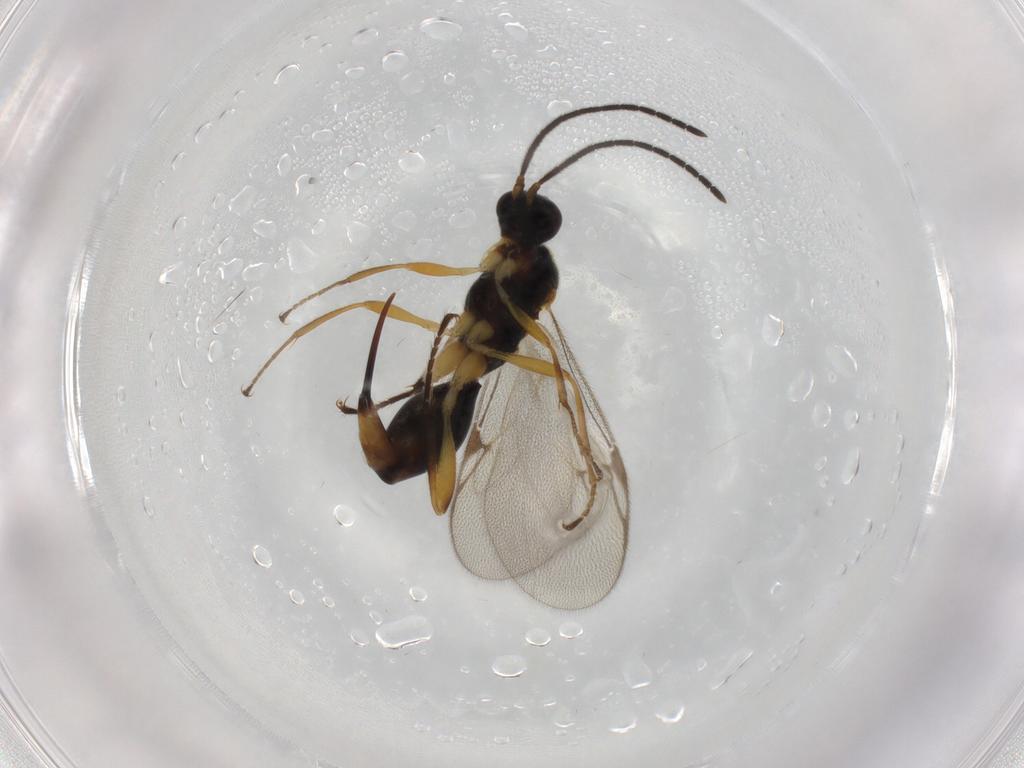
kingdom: Animalia
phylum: Arthropoda
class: Insecta
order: Hymenoptera
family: Proctotrupidae
